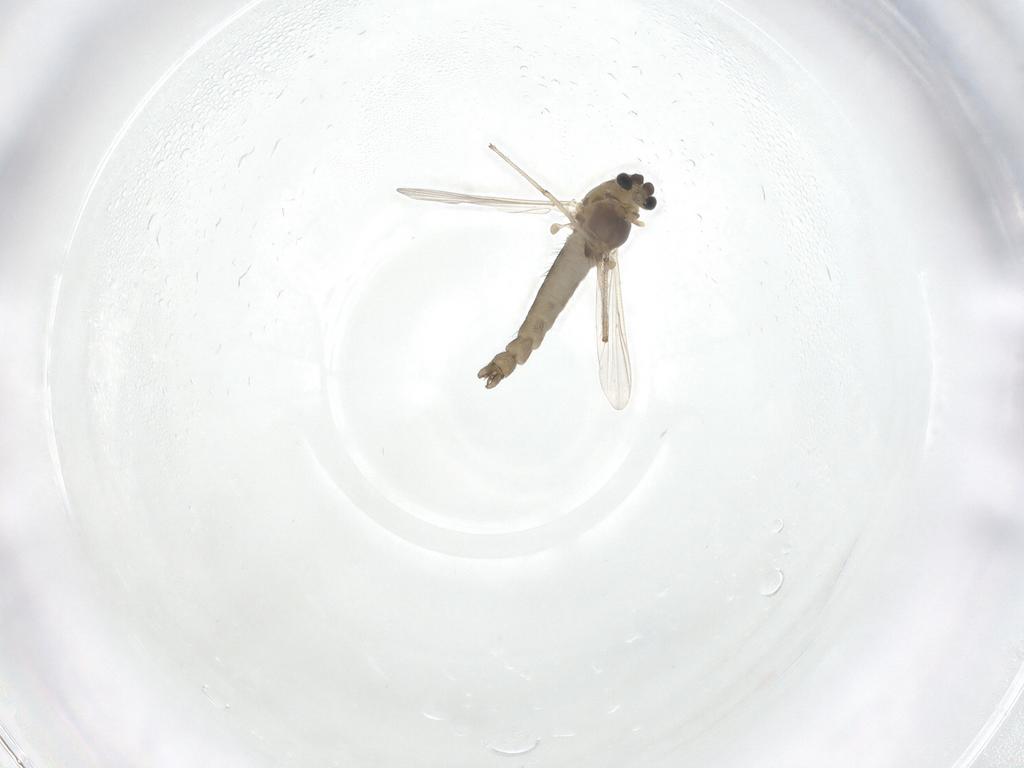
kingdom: Animalia
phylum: Arthropoda
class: Insecta
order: Diptera
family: Chironomidae
